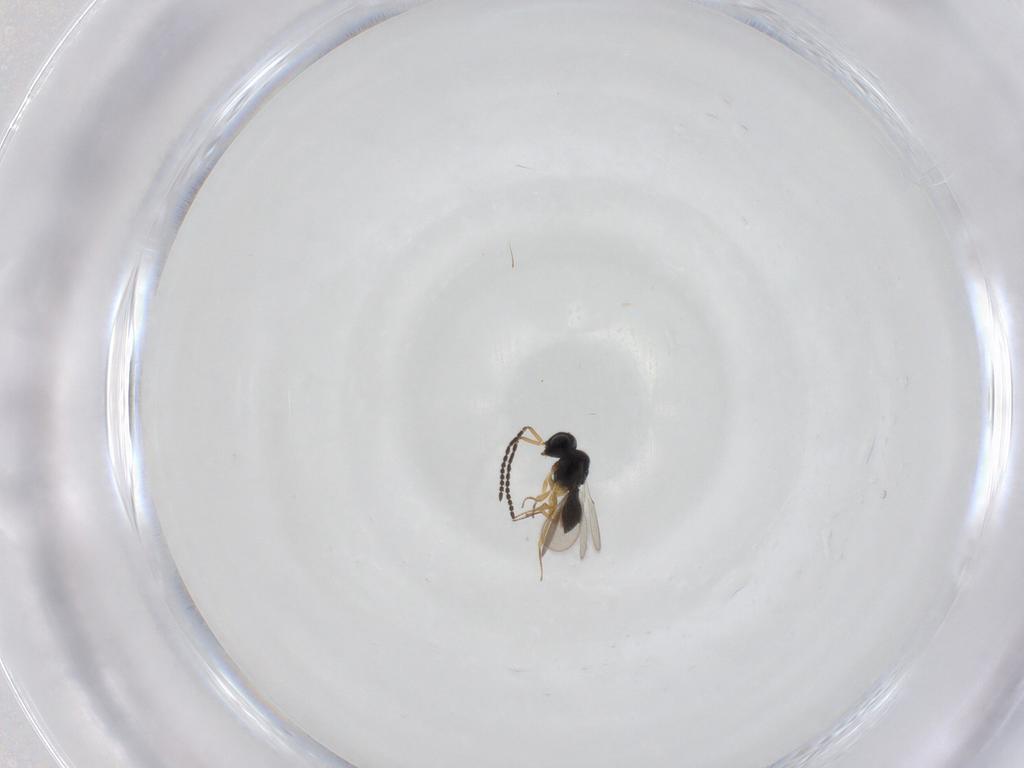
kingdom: Animalia
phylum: Arthropoda
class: Insecta
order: Hymenoptera
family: Scelionidae
